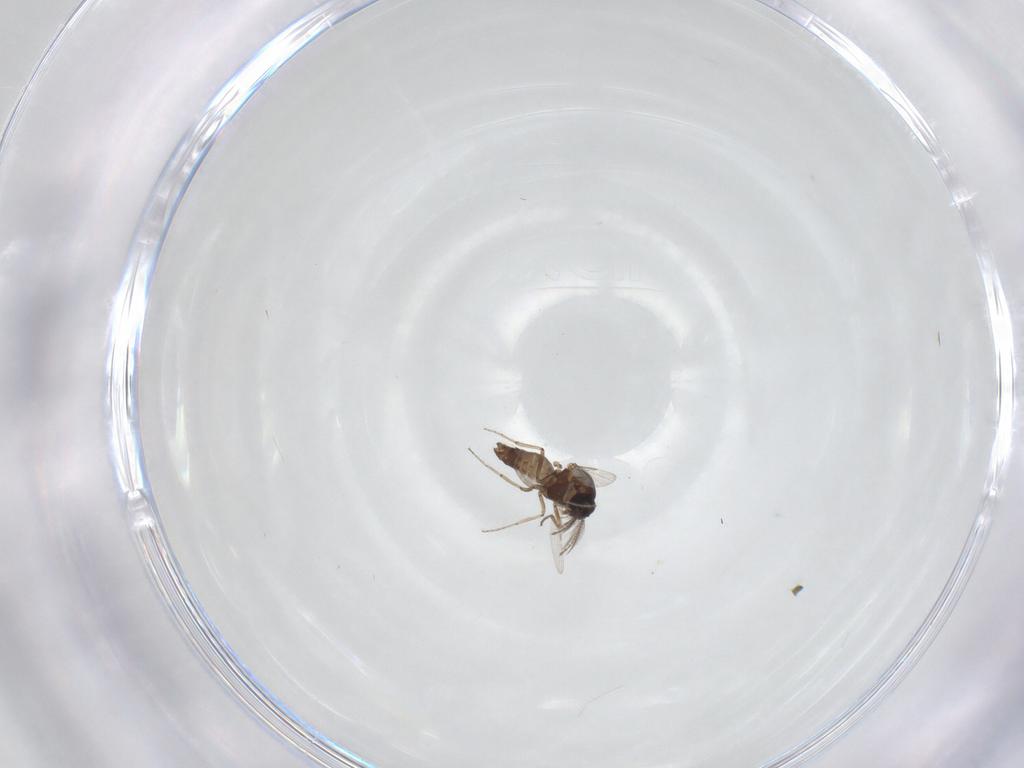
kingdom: Animalia
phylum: Arthropoda
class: Insecta
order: Diptera
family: Ceratopogonidae
